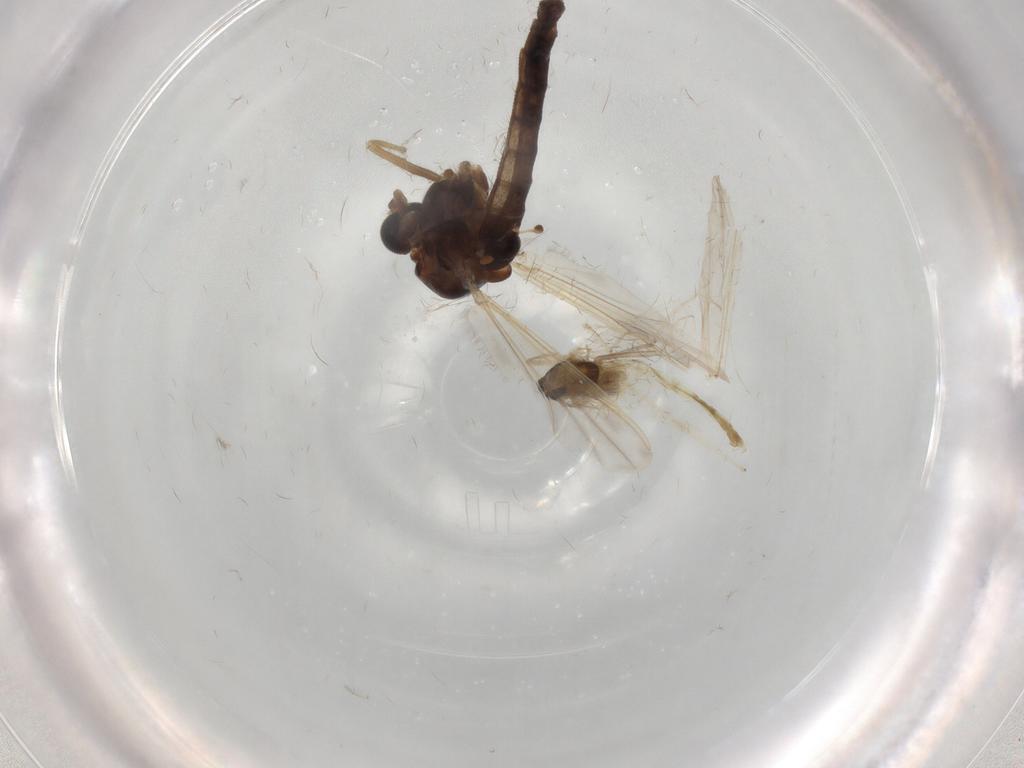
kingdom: Animalia
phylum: Arthropoda
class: Insecta
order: Diptera
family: Chironomidae
